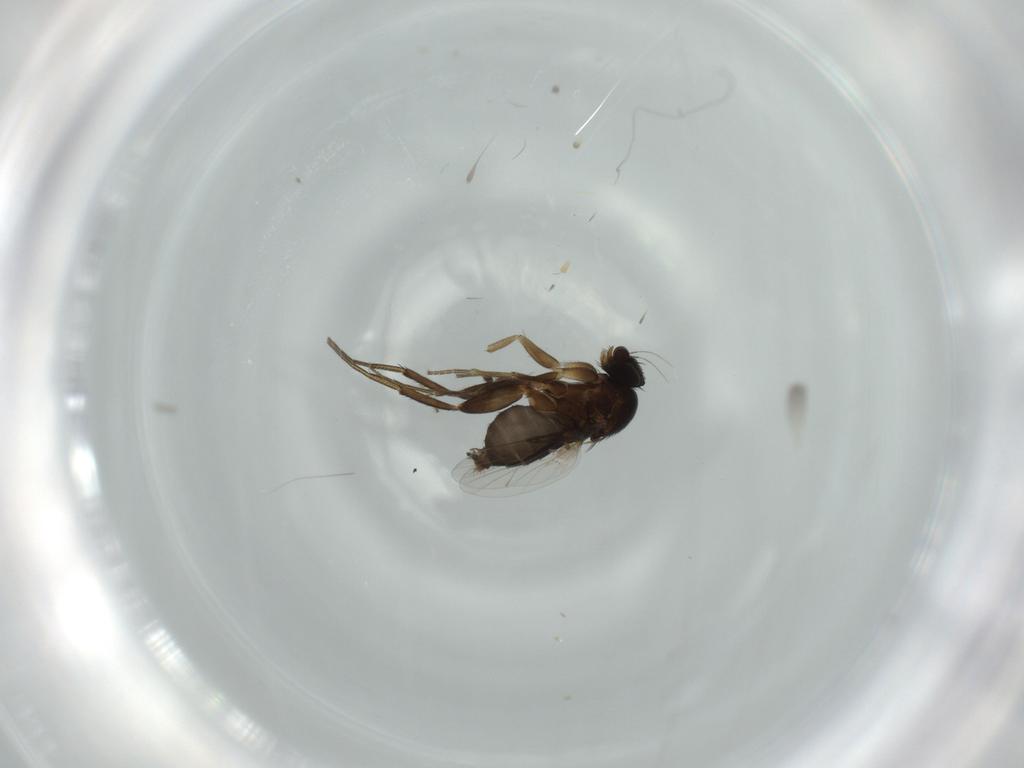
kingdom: Animalia
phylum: Arthropoda
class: Insecta
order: Diptera
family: Phoridae
